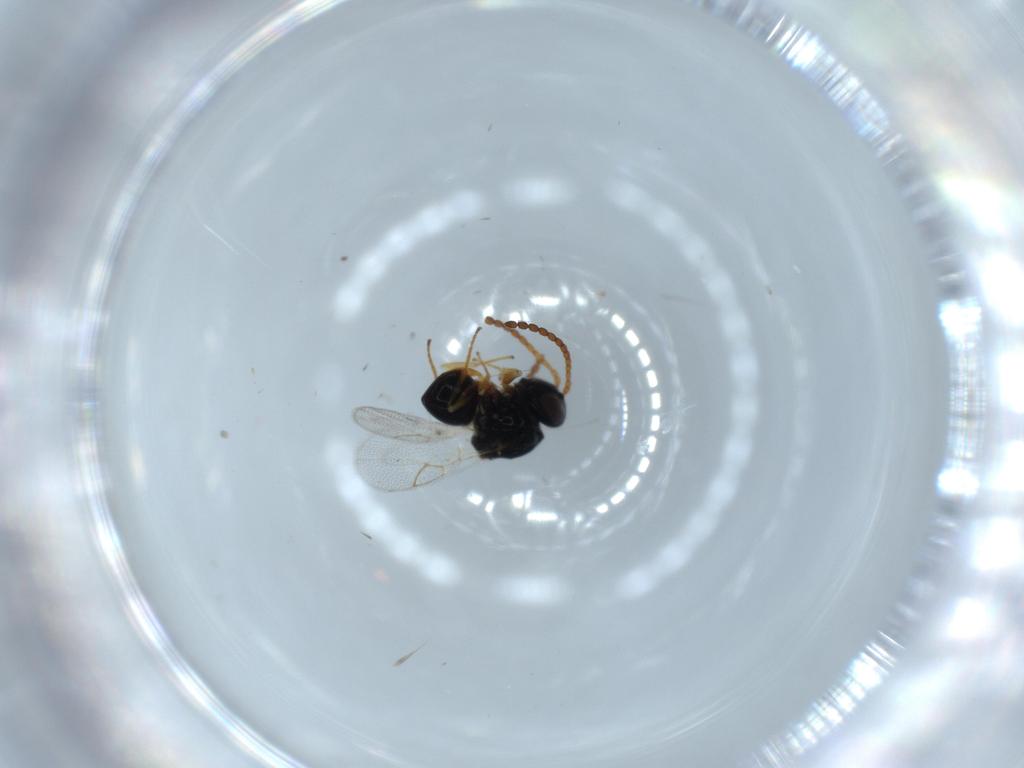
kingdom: Animalia
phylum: Arthropoda
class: Insecta
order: Hymenoptera
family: Figitidae
